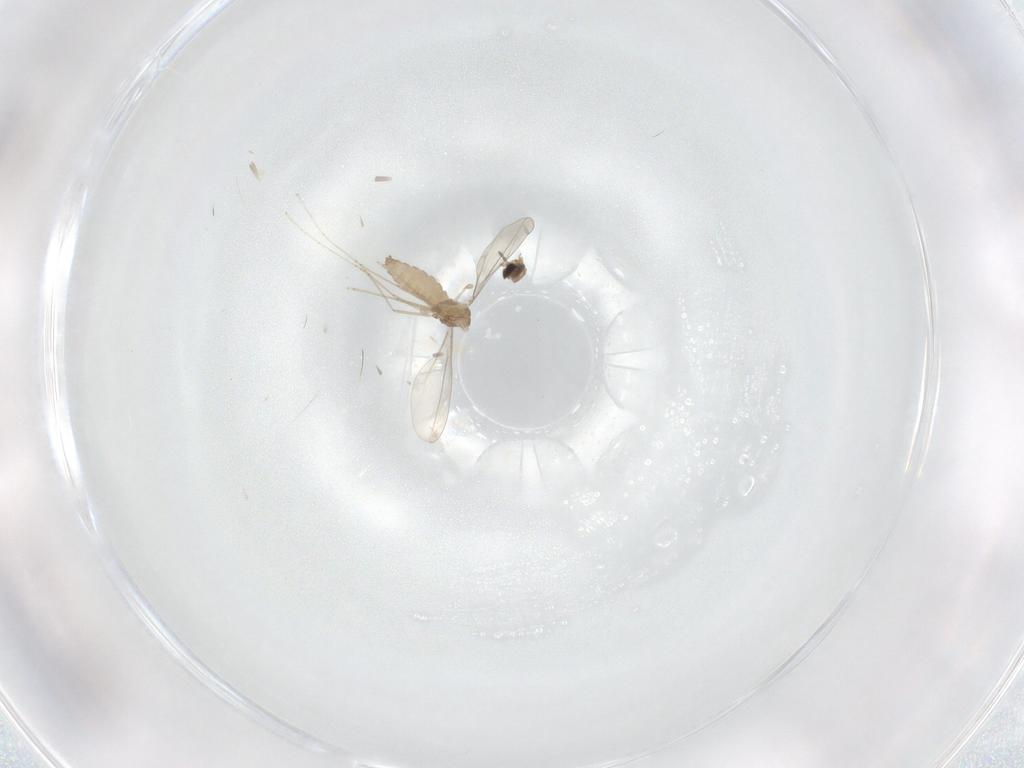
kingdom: Animalia
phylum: Arthropoda
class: Insecta
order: Diptera
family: Cecidomyiidae
